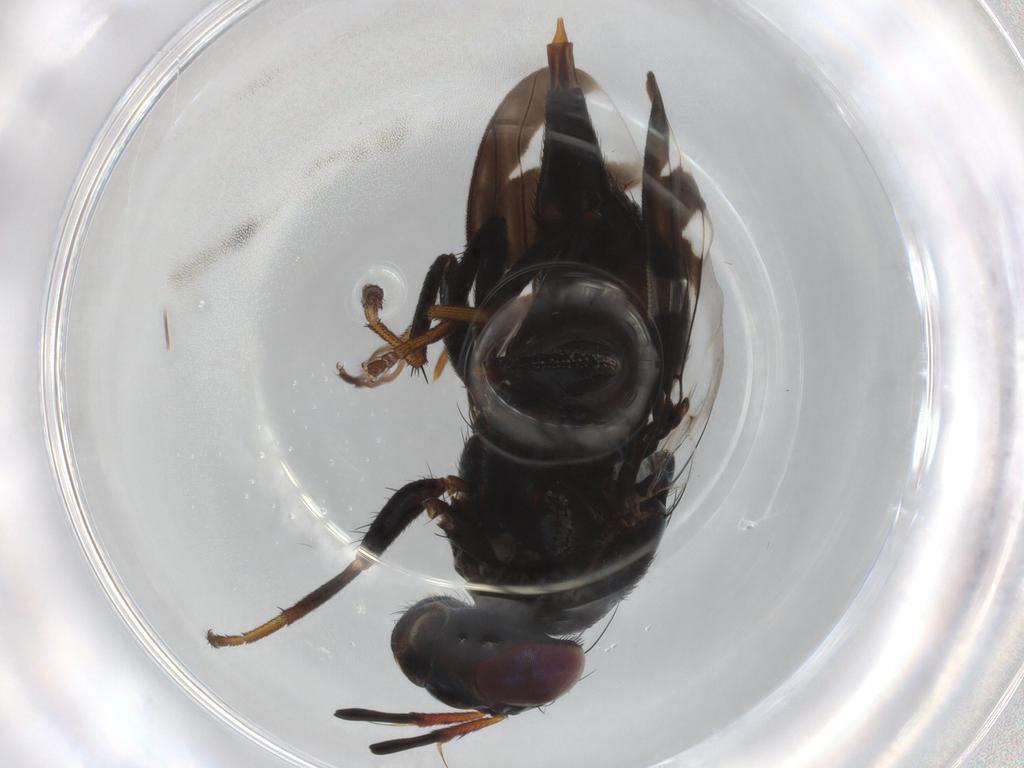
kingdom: Animalia
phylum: Arthropoda
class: Insecta
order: Diptera
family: Tephritidae
